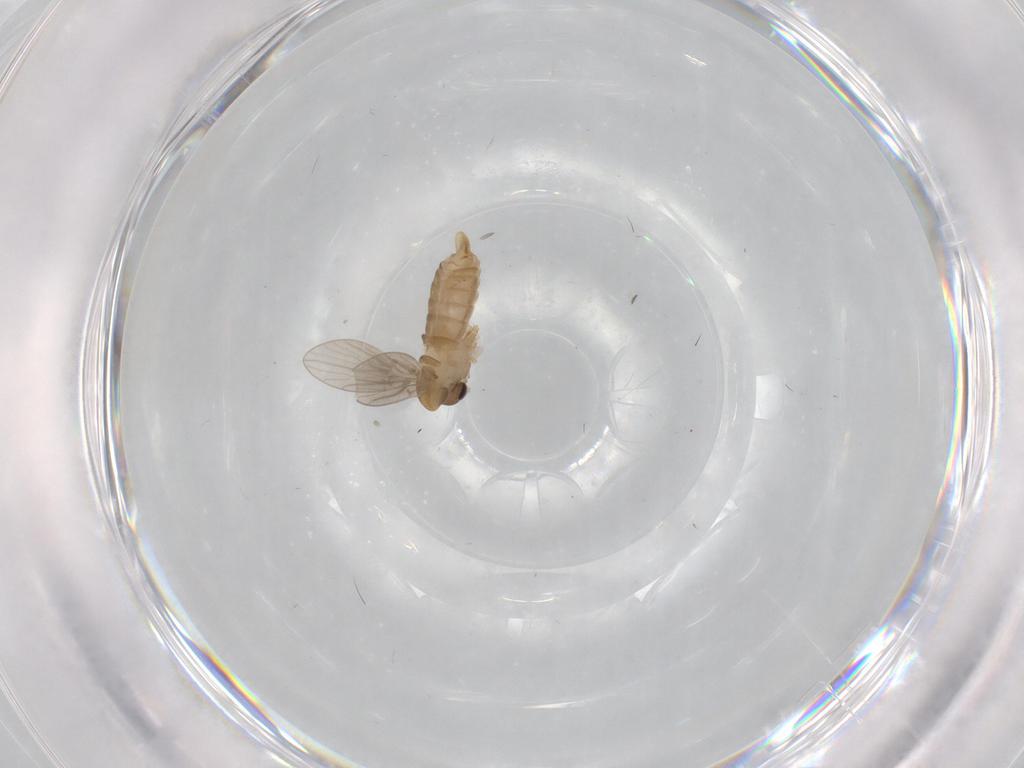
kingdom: Animalia
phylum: Arthropoda
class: Insecta
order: Diptera
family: Psychodidae
